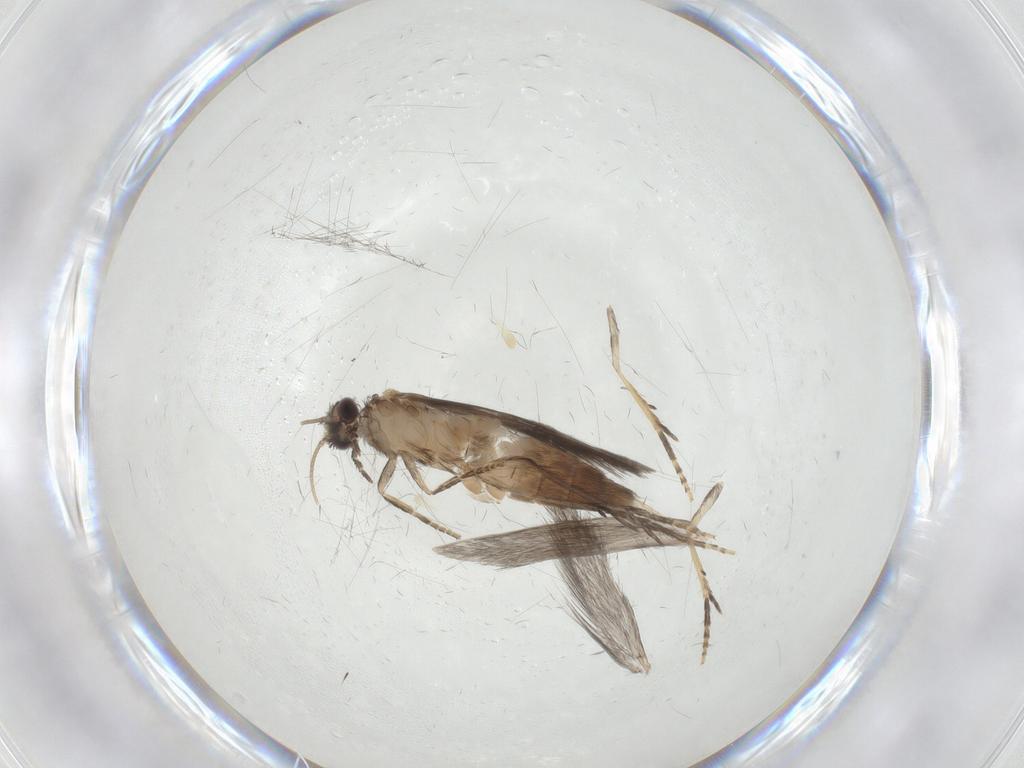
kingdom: Animalia
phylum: Arthropoda
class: Insecta
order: Trichoptera
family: Hydroptilidae
